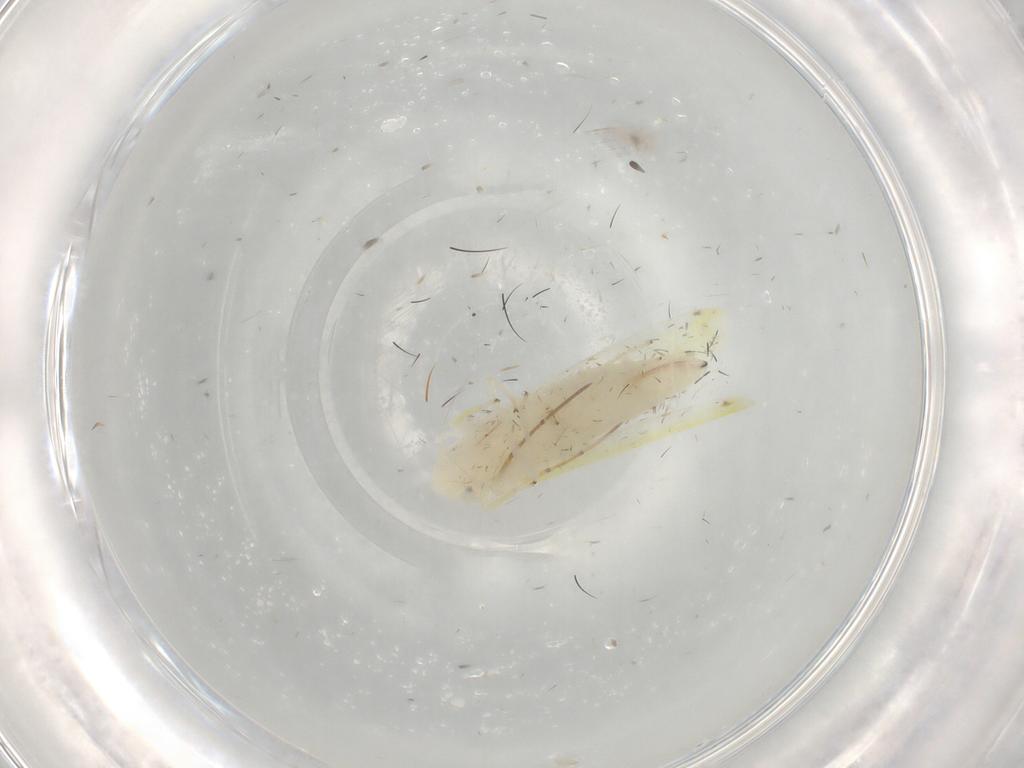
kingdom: Animalia
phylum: Arthropoda
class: Insecta
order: Hemiptera
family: Cicadellidae
